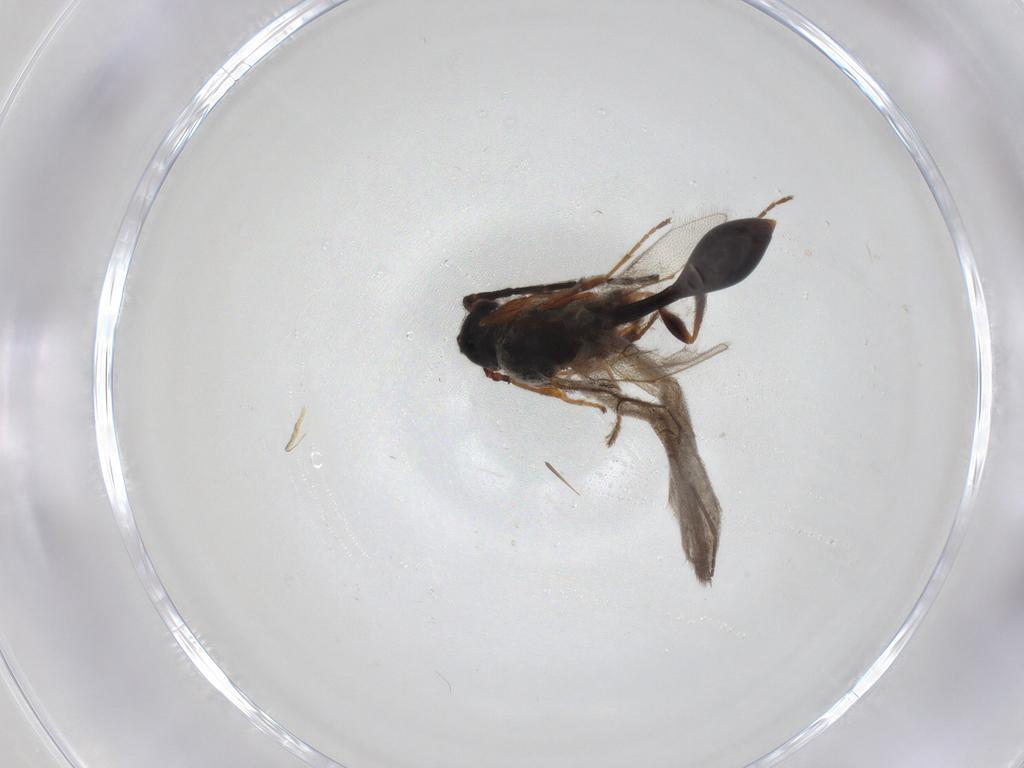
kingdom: Animalia
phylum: Arthropoda
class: Insecta
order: Hymenoptera
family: Diapriidae
